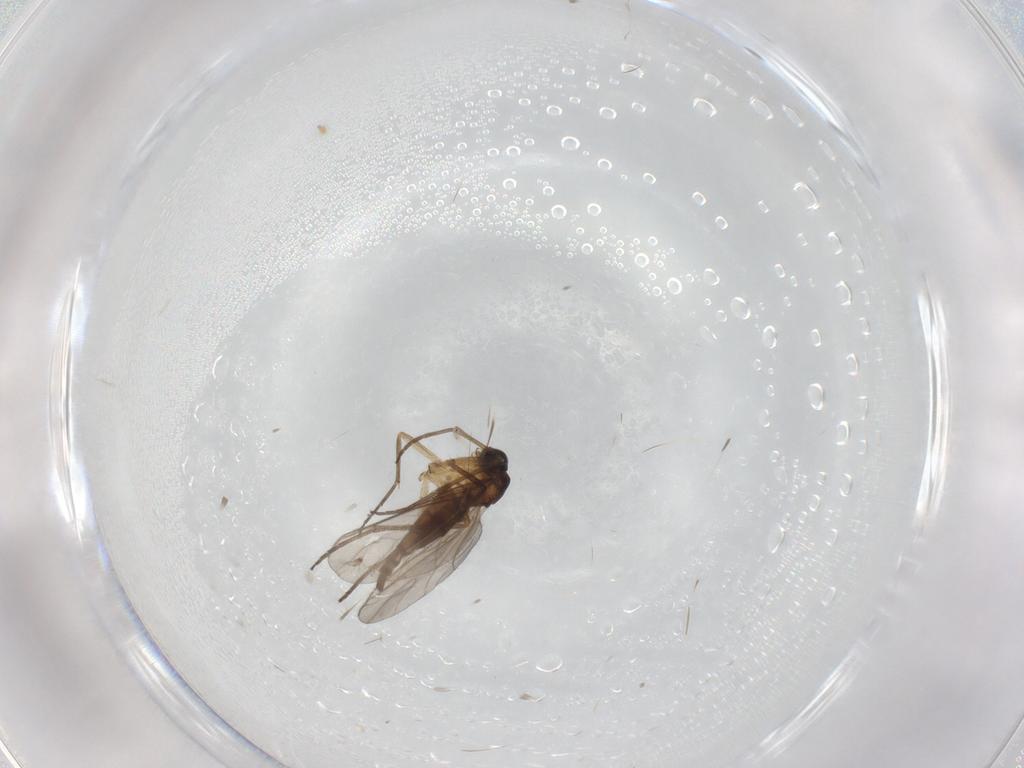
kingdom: Animalia
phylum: Arthropoda
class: Insecta
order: Diptera
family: Sciaridae
